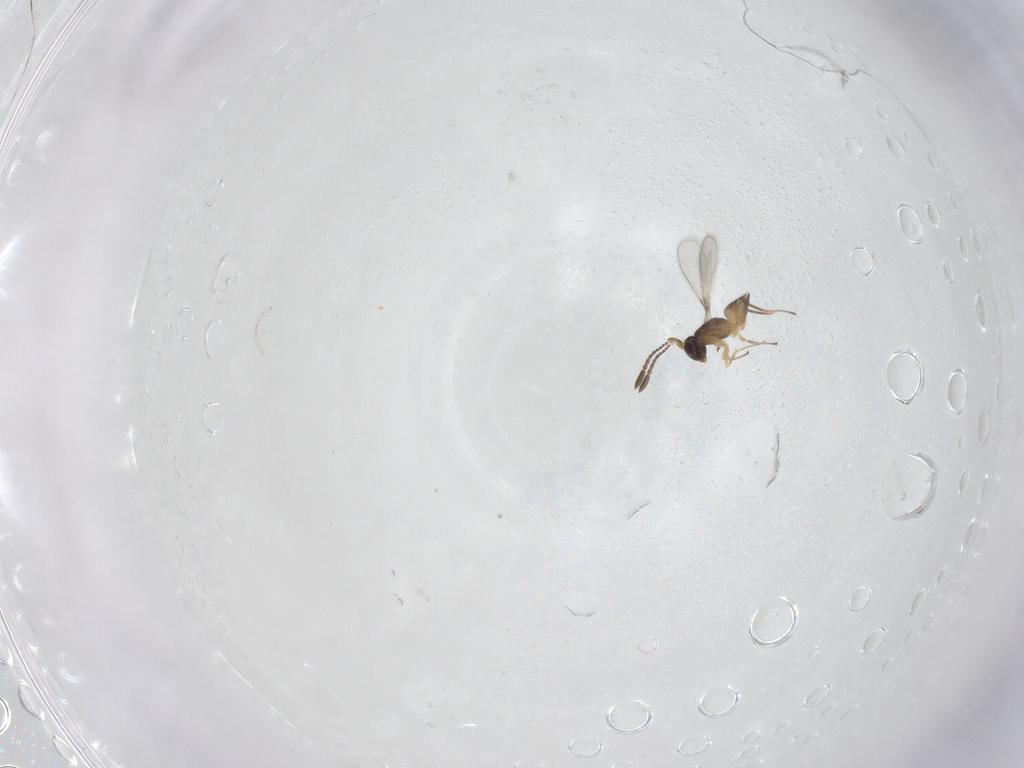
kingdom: Animalia
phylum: Arthropoda
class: Insecta
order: Hymenoptera
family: Mymaridae
